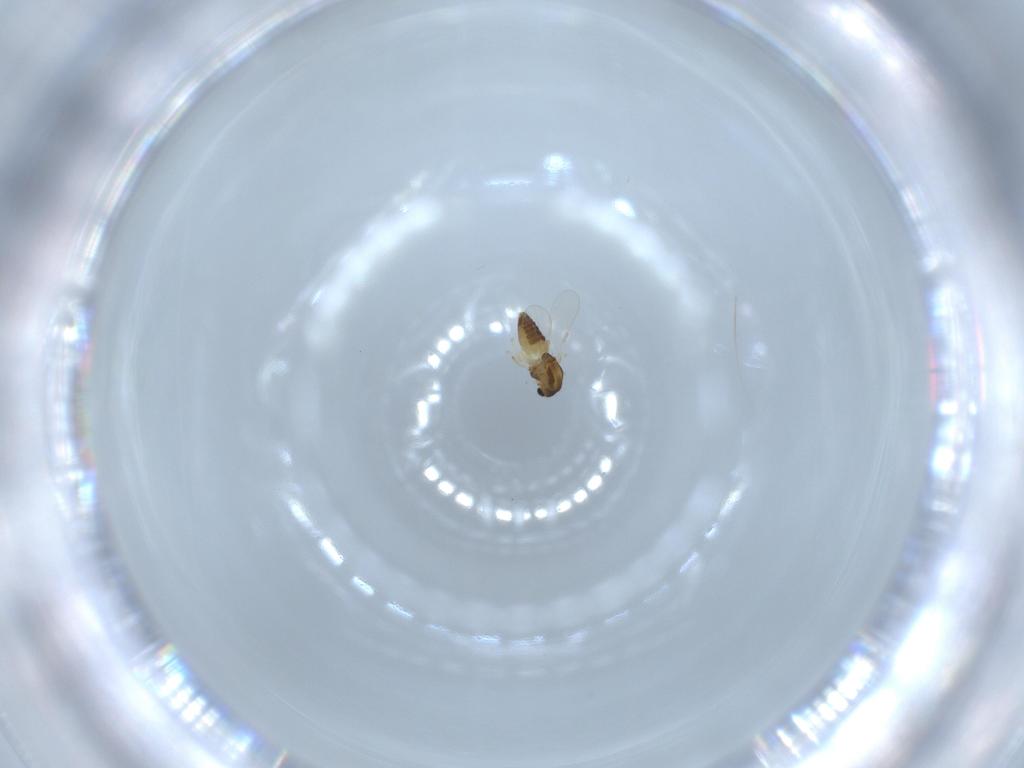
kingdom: Animalia
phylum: Arthropoda
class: Insecta
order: Diptera
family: Chironomidae
